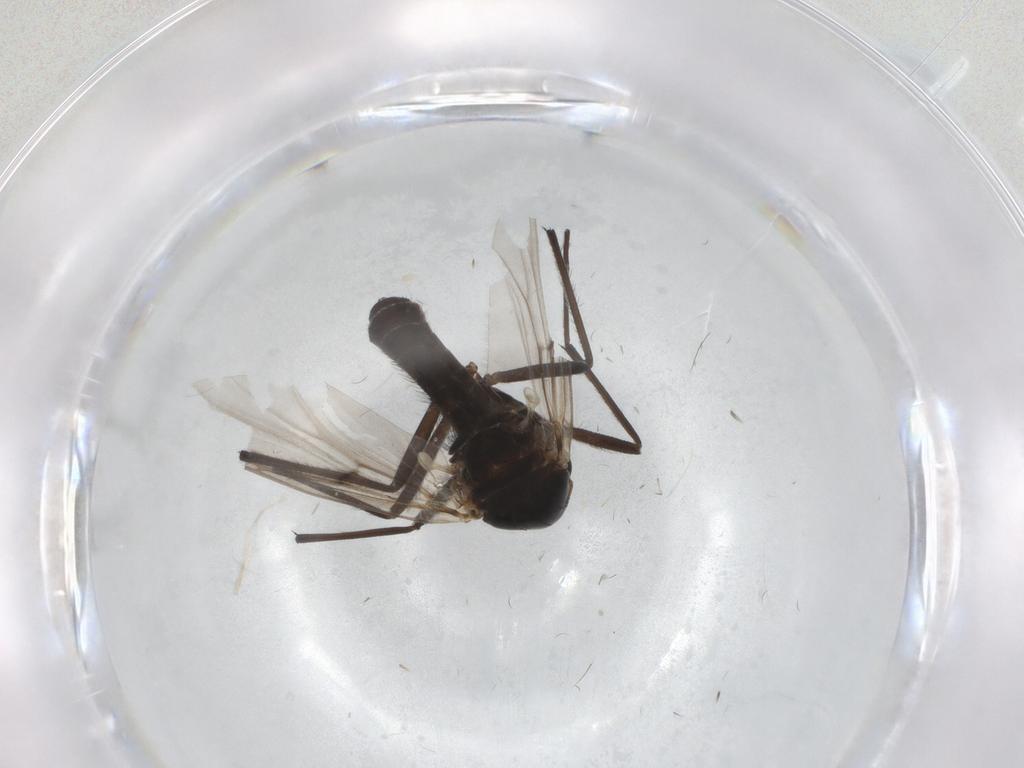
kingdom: Animalia
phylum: Arthropoda
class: Insecta
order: Diptera
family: Chironomidae
